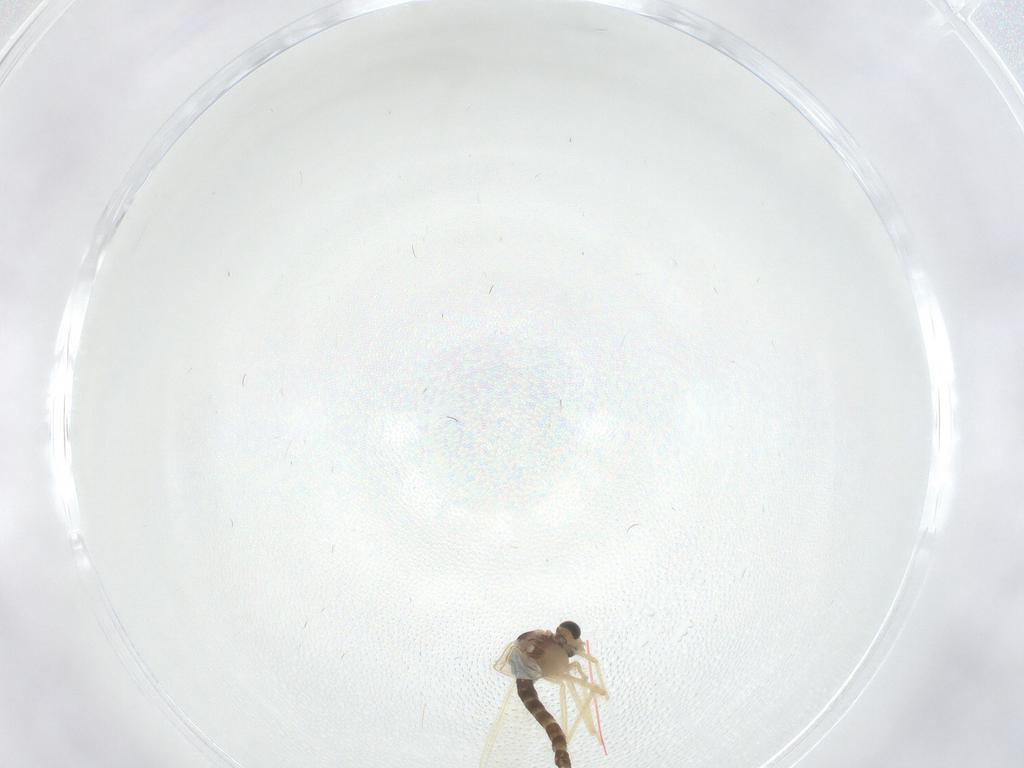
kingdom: Animalia
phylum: Arthropoda
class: Insecta
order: Diptera
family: Chironomidae
